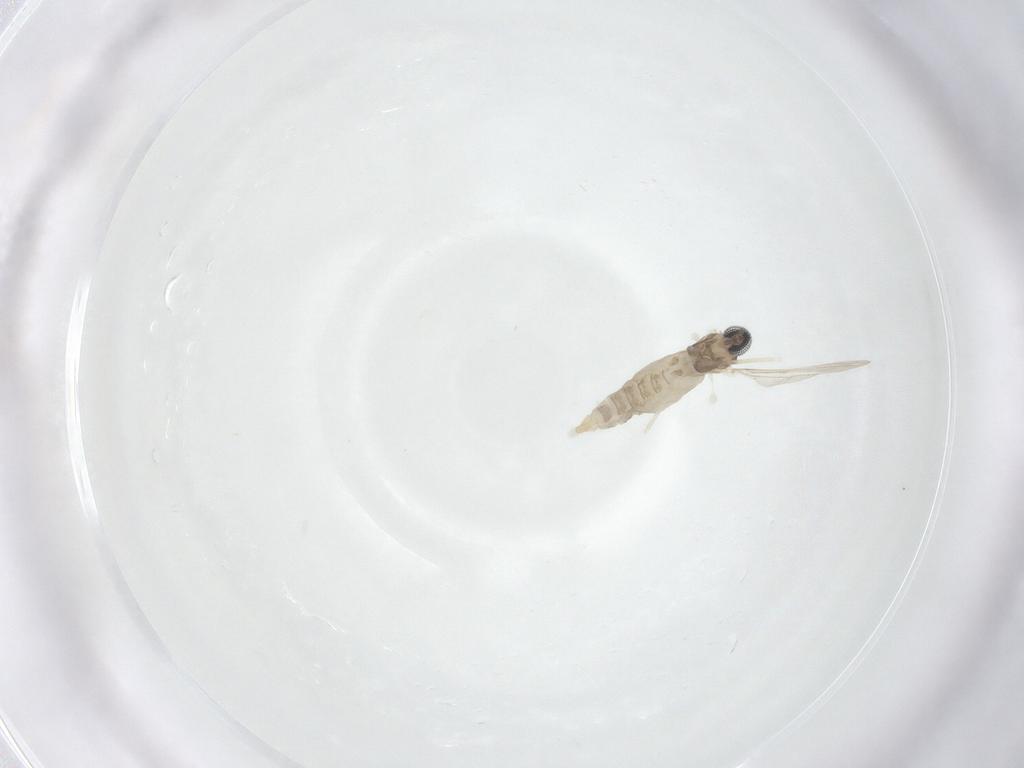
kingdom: Animalia
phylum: Arthropoda
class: Insecta
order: Diptera
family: Cecidomyiidae
